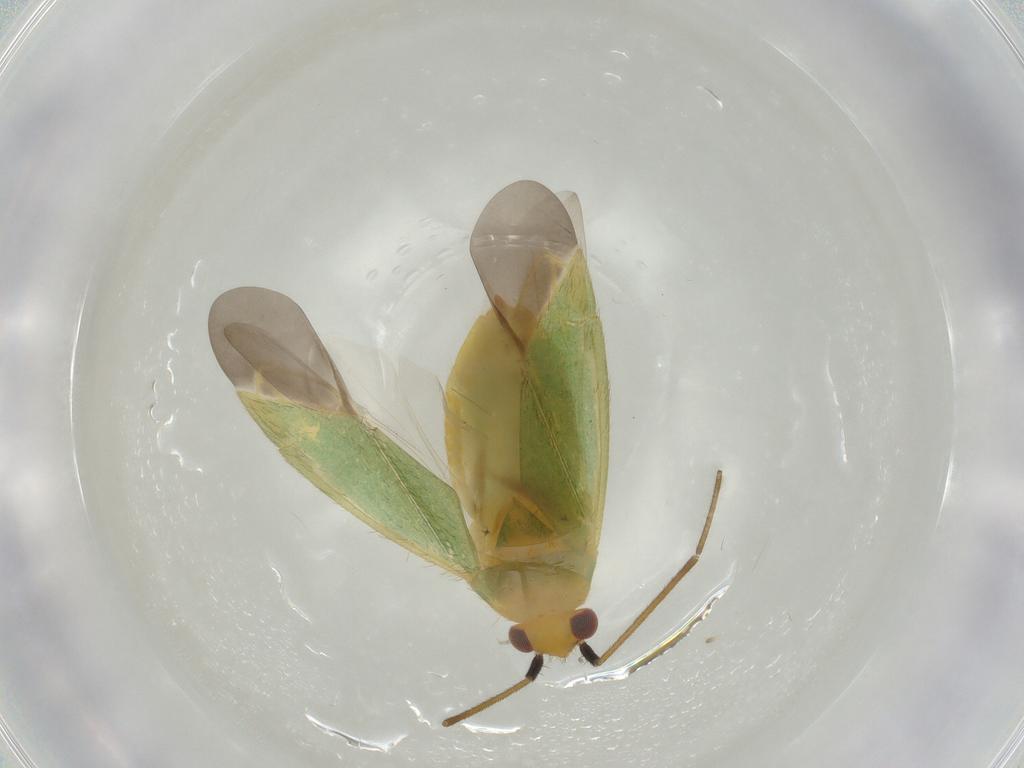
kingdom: Animalia
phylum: Arthropoda
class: Insecta
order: Hemiptera
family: Miridae
